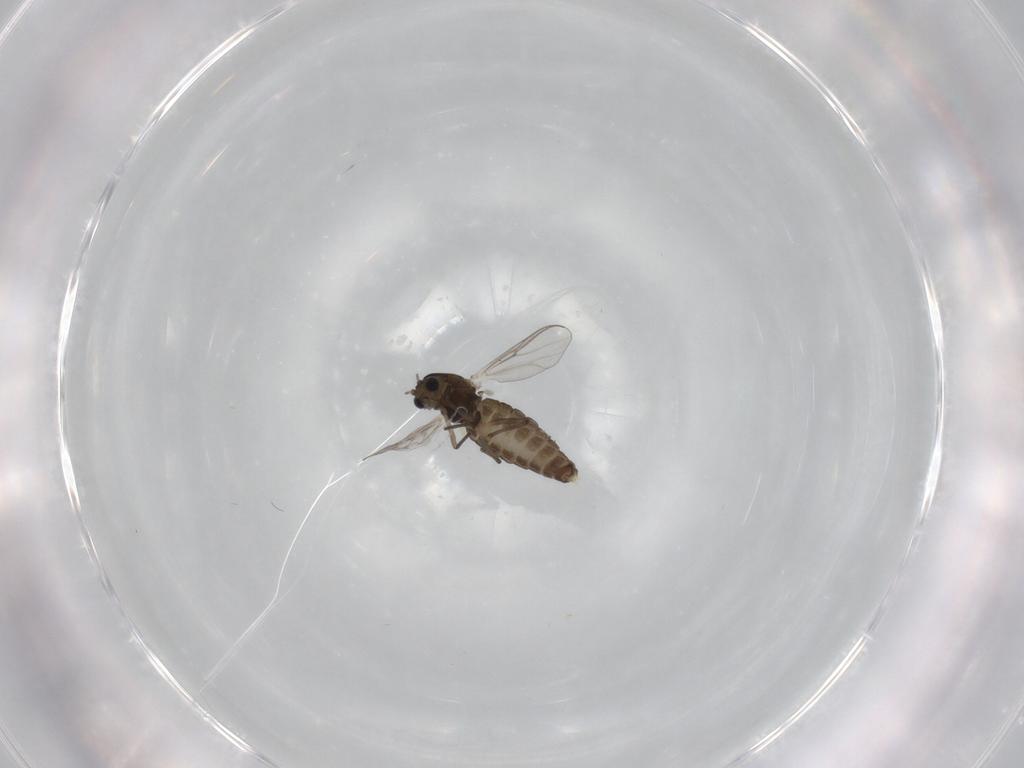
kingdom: Animalia
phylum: Arthropoda
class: Insecta
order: Diptera
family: Chironomidae
